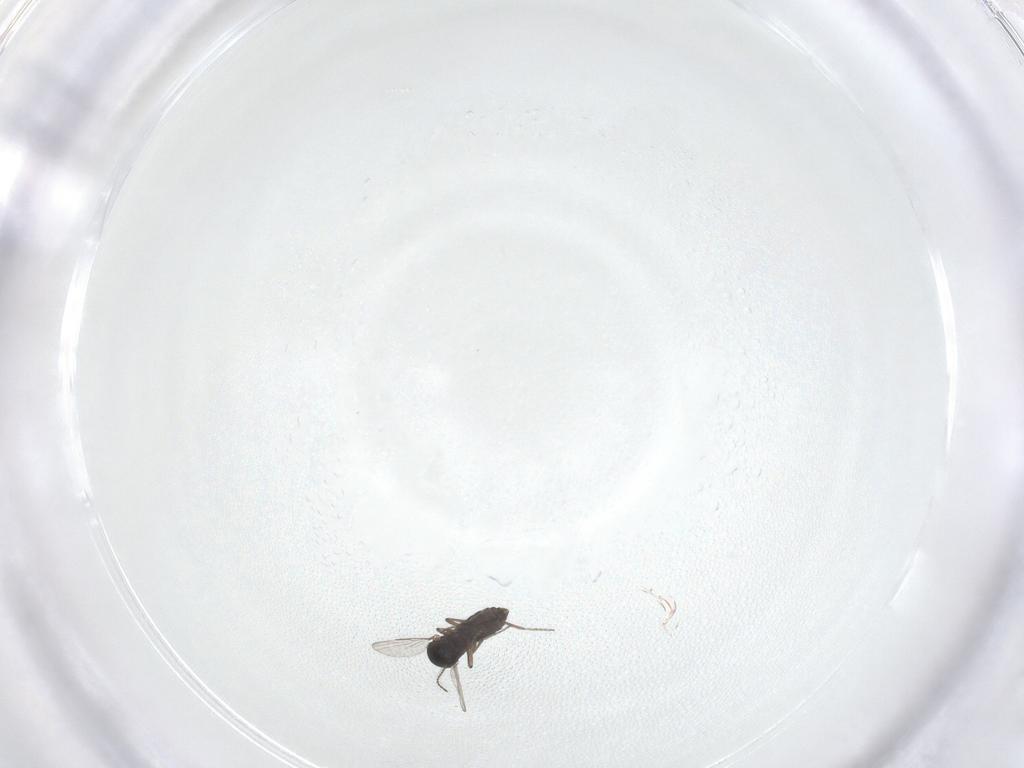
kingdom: Animalia
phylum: Arthropoda
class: Insecta
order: Diptera
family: Ceratopogonidae
